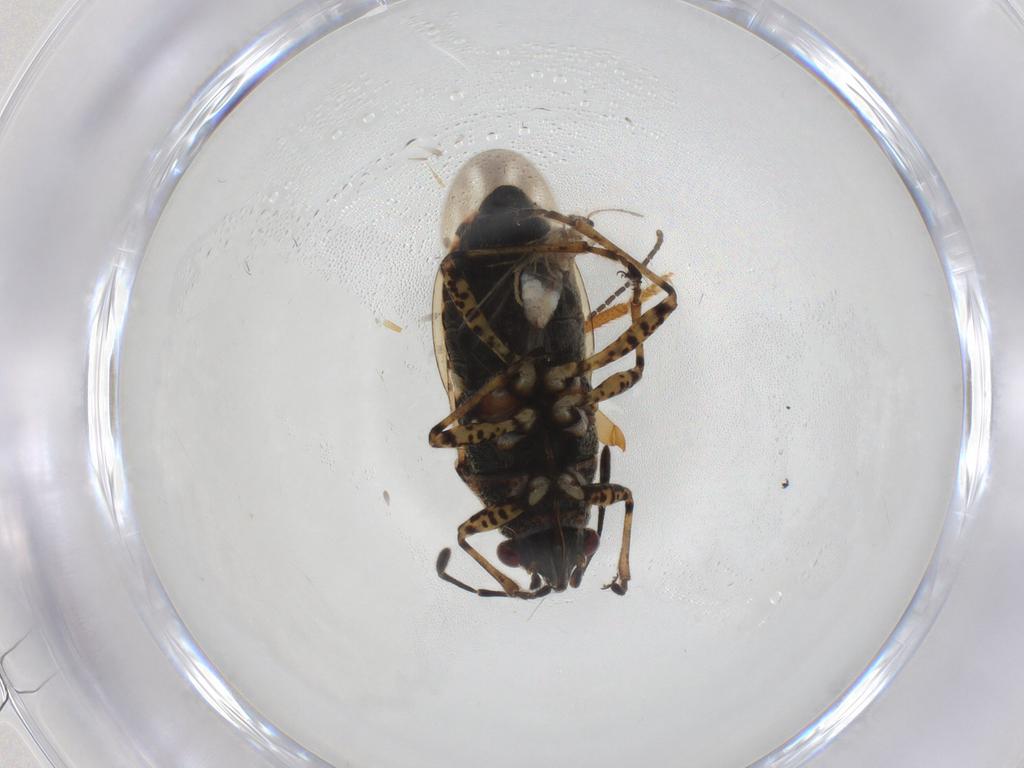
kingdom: Animalia
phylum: Arthropoda
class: Insecta
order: Lepidoptera
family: Nepticulidae
